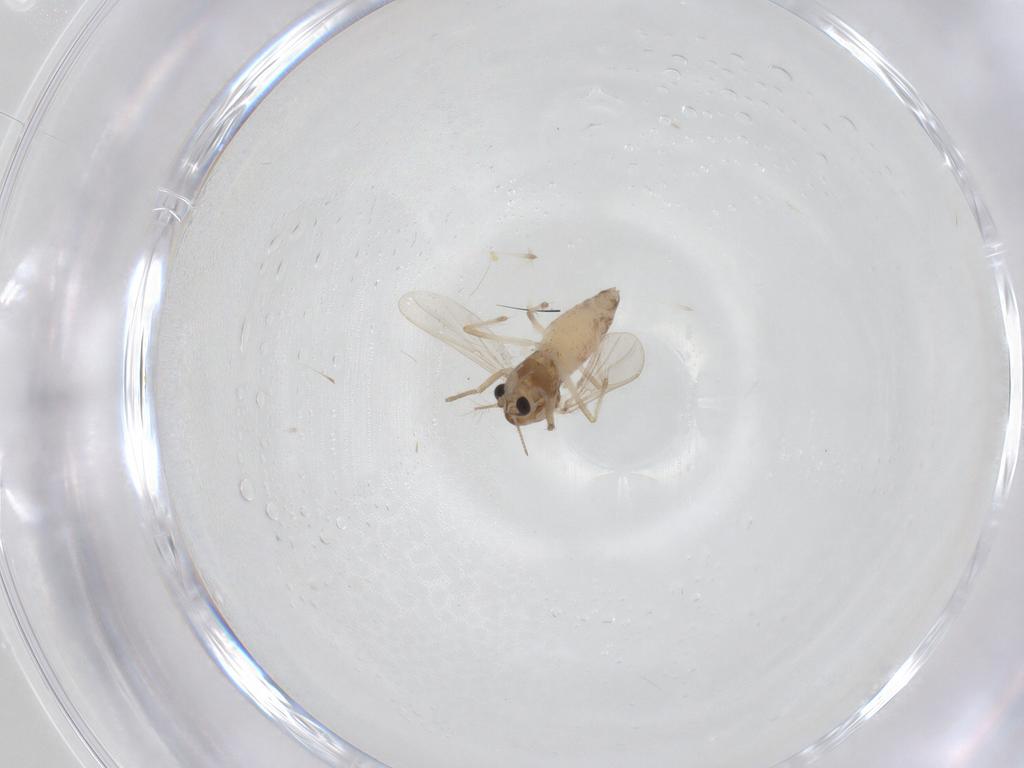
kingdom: Animalia
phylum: Arthropoda
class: Insecta
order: Diptera
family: Chironomidae
